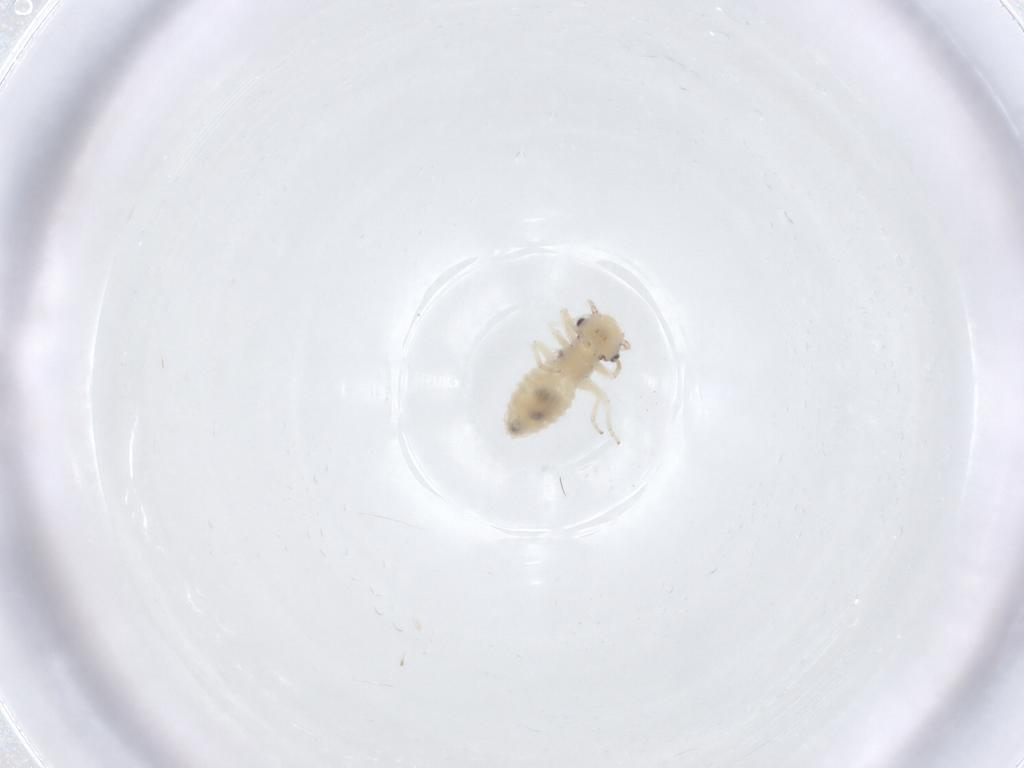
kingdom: Animalia
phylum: Arthropoda
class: Insecta
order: Psocodea
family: Caeciliusidae
